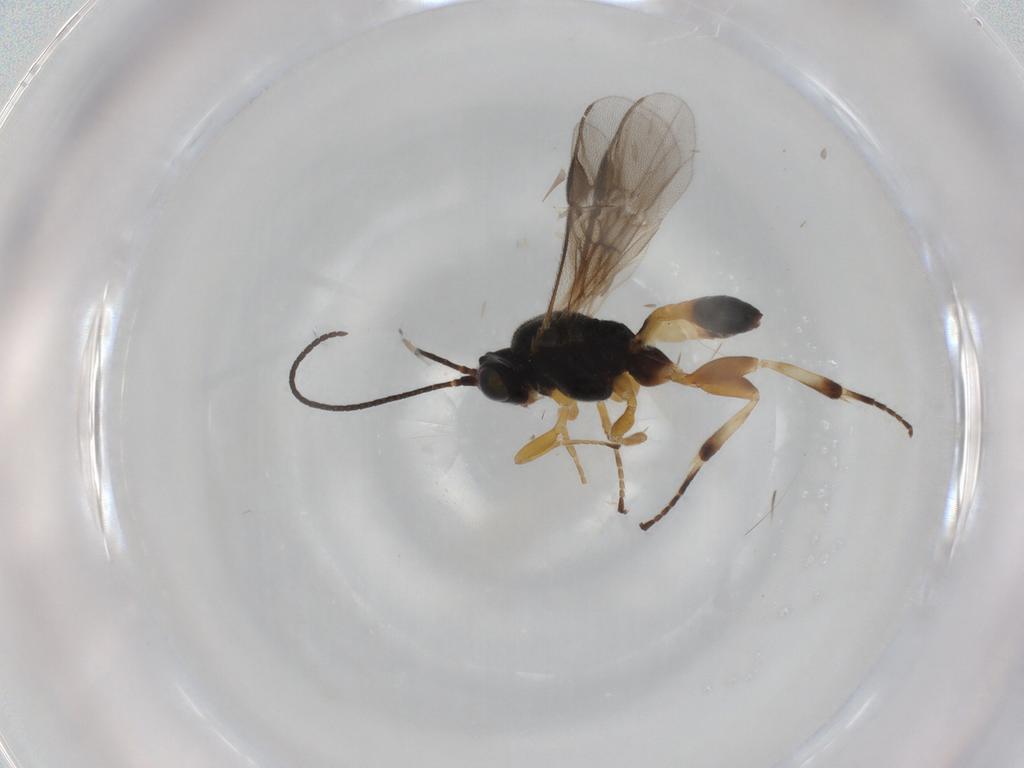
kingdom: Animalia
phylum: Arthropoda
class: Insecta
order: Hymenoptera
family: Braconidae
